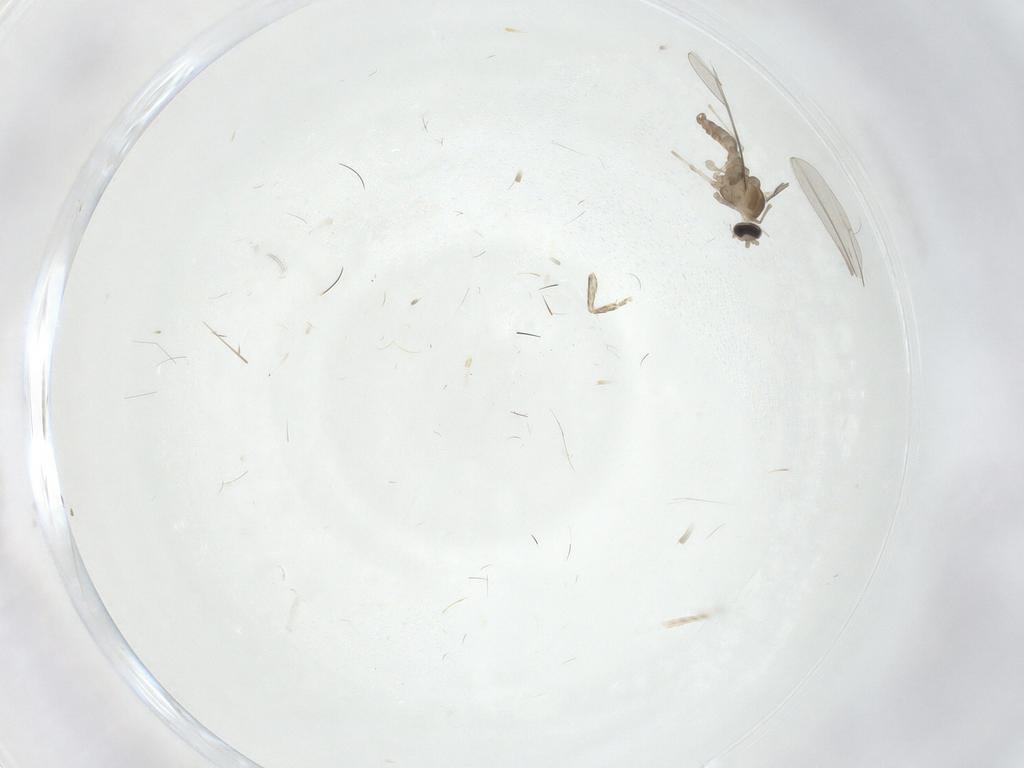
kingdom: Animalia
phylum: Arthropoda
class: Insecta
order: Diptera
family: Cecidomyiidae
